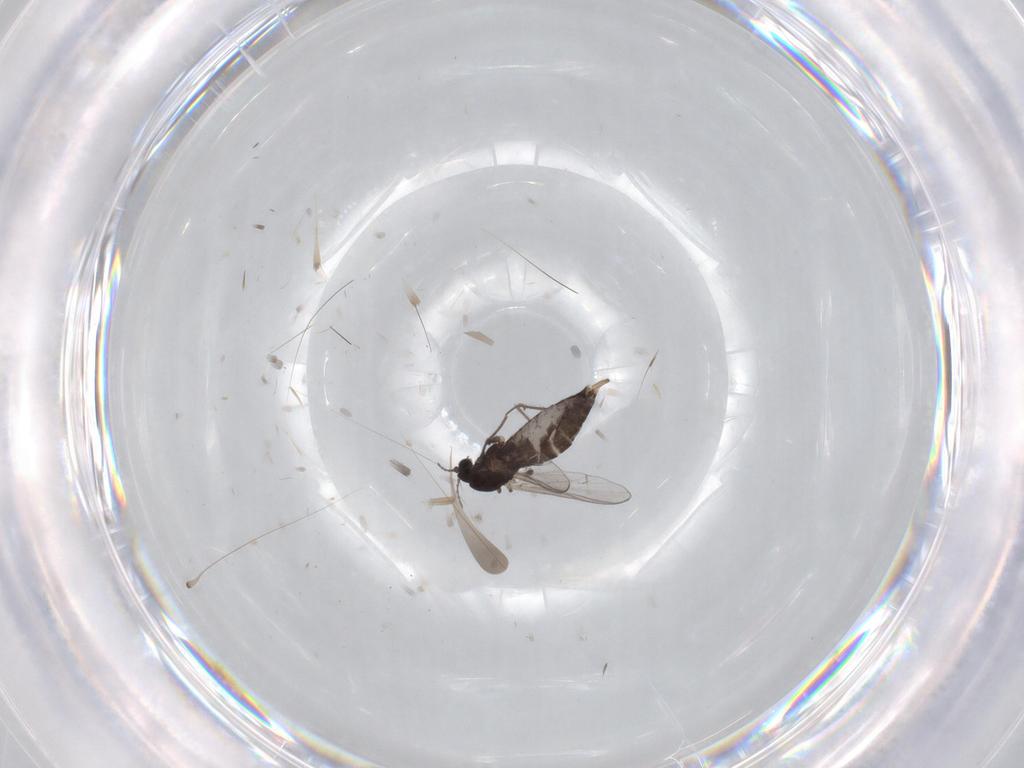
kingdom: Animalia
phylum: Arthropoda
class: Insecta
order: Diptera
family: Chironomidae
